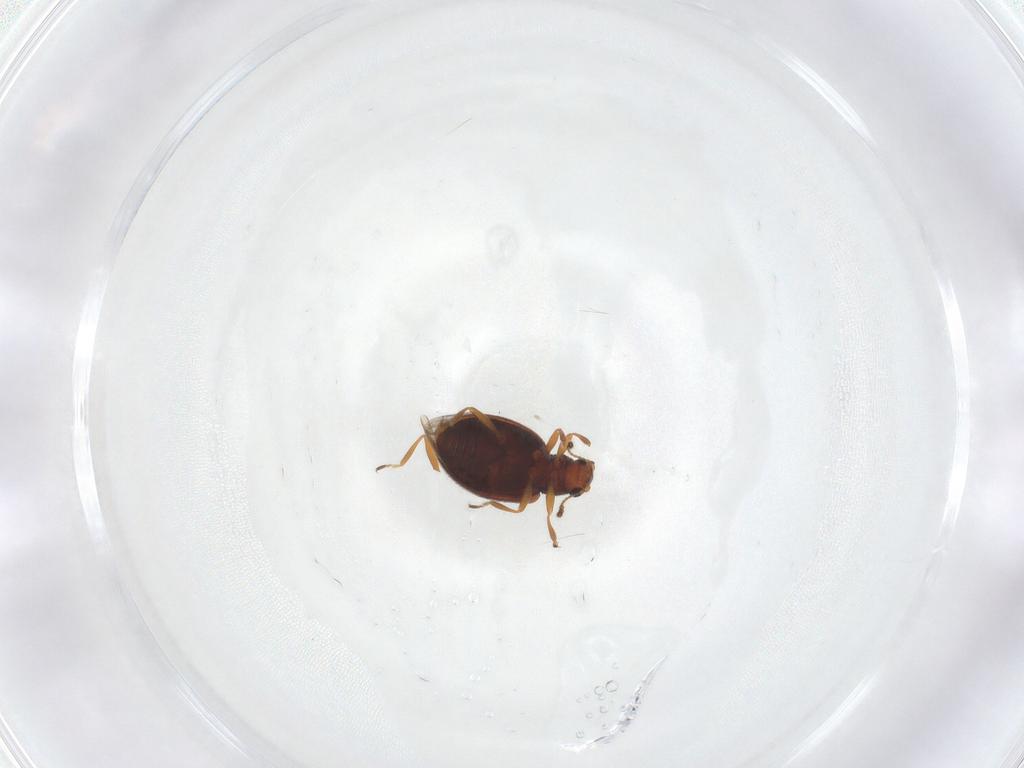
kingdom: Animalia
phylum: Arthropoda
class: Insecta
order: Coleoptera
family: Latridiidae
